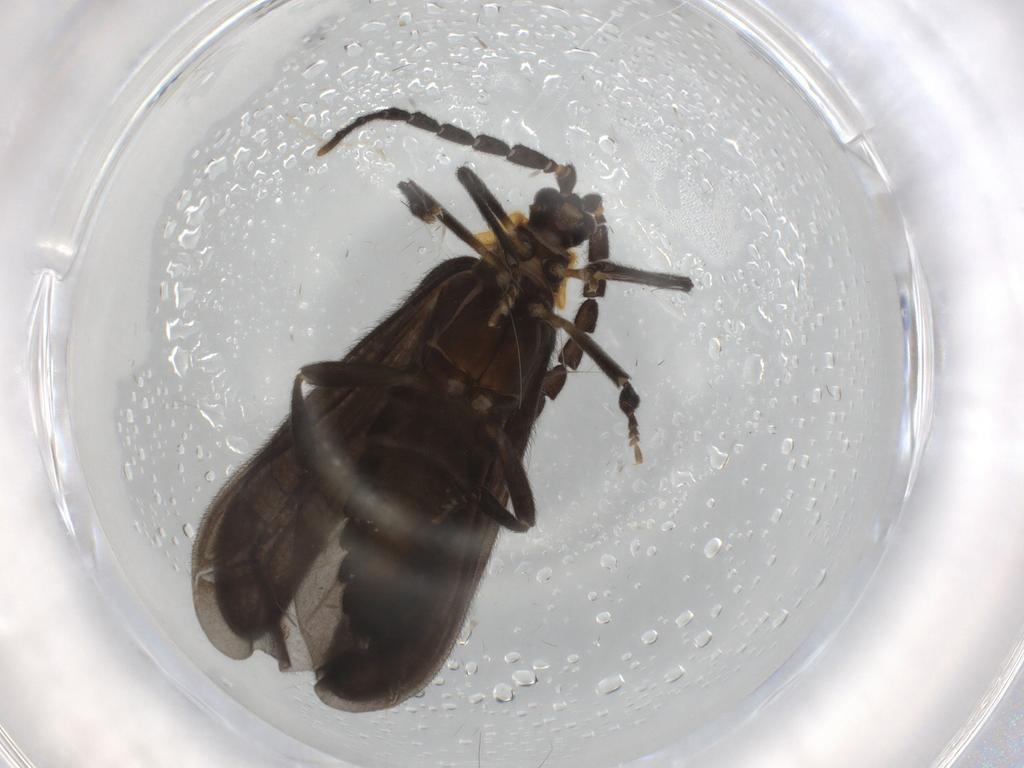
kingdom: Animalia
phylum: Arthropoda
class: Insecta
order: Coleoptera
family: Lycidae
